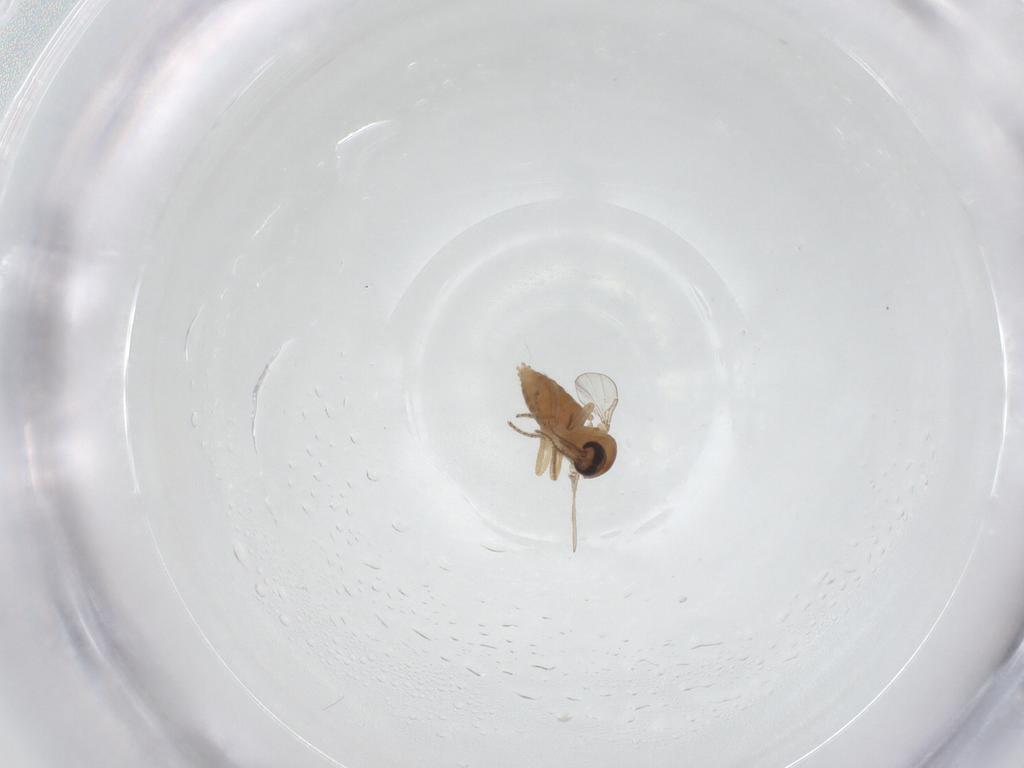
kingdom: Animalia
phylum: Arthropoda
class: Insecta
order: Diptera
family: Ceratopogonidae
